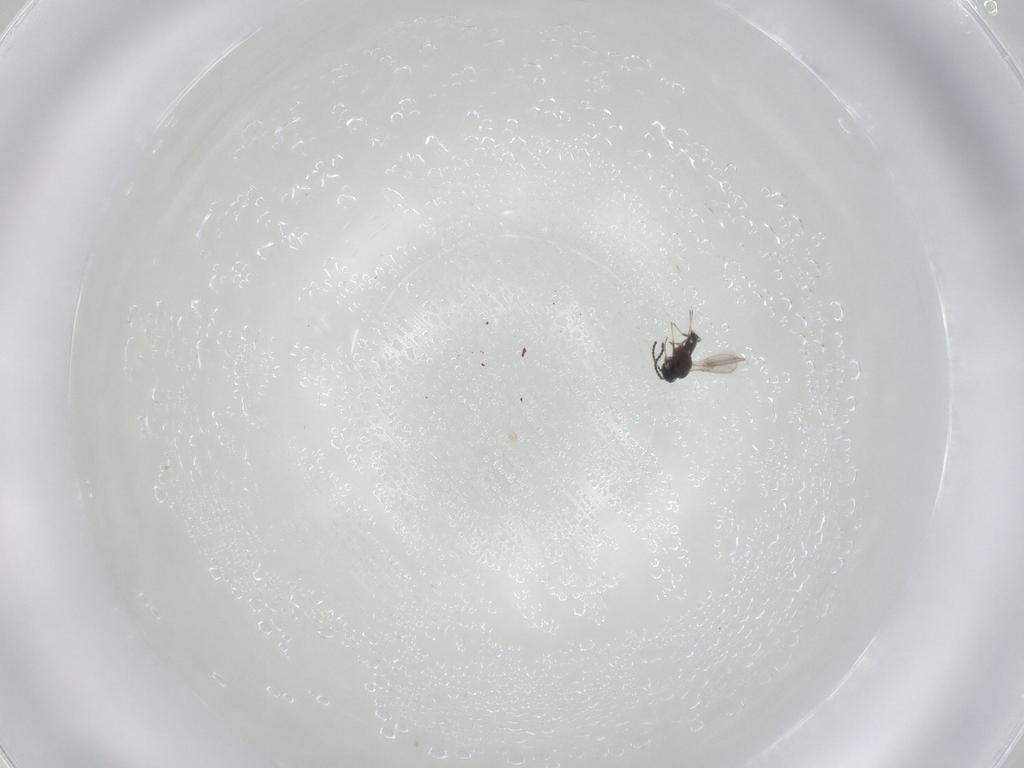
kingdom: Animalia
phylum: Arthropoda
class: Insecta
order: Hymenoptera
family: Scelionidae
